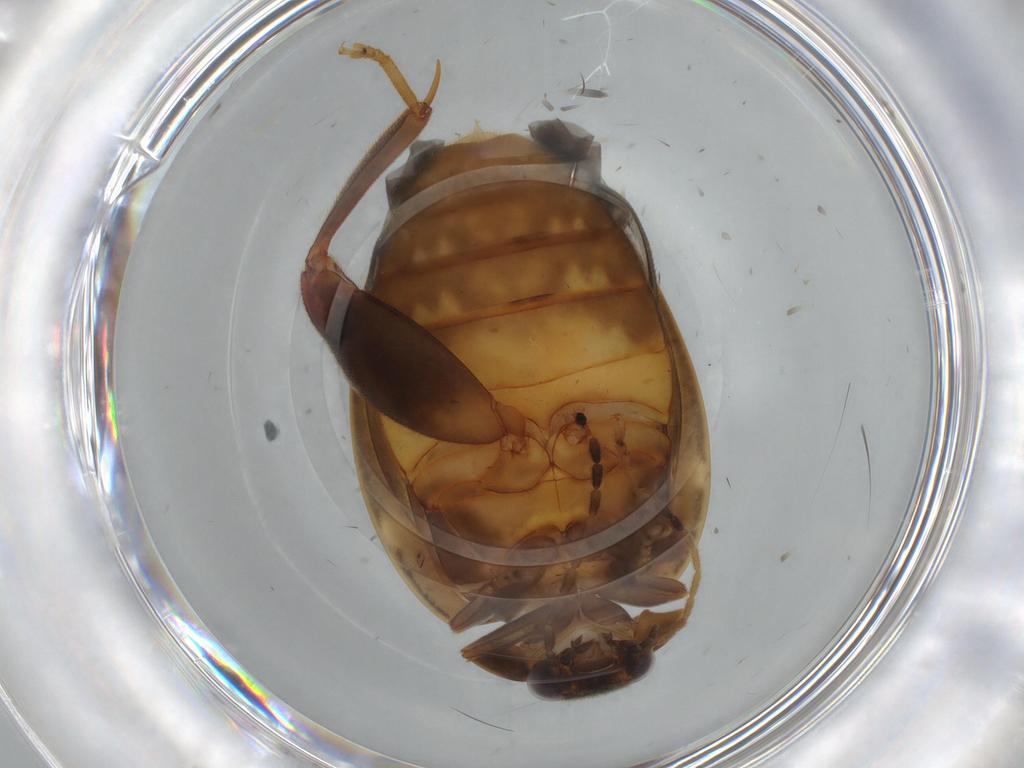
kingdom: Animalia
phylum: Arthropoda
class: Insecta
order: Coleoptera
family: Scirtidae
